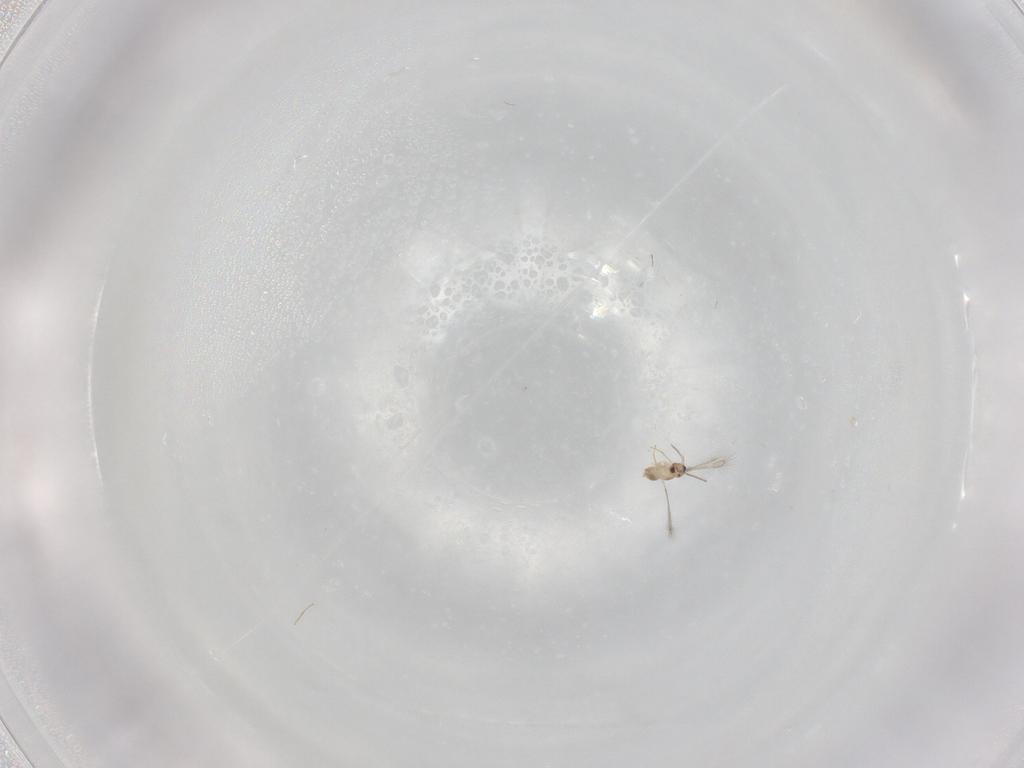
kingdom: Animalia
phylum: Arthropoda
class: Insecta
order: Hymenoptera
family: Mymaridae
